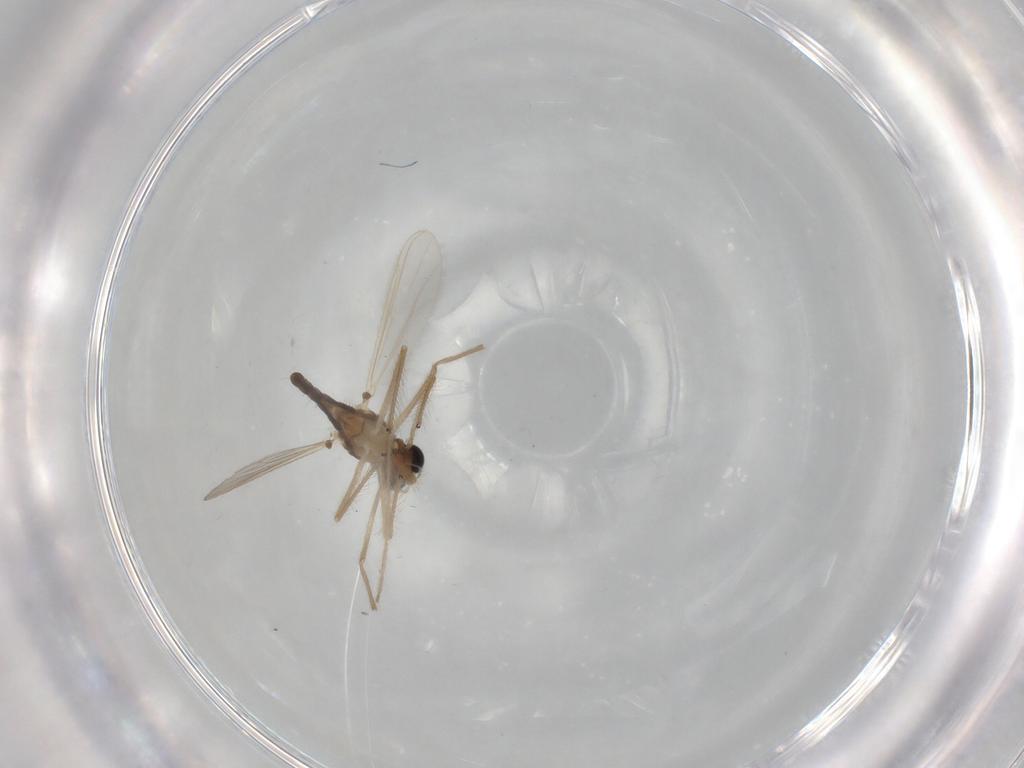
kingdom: Animalia
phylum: Arthropoda
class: Insecta
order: Diptera
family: Chironomidae
